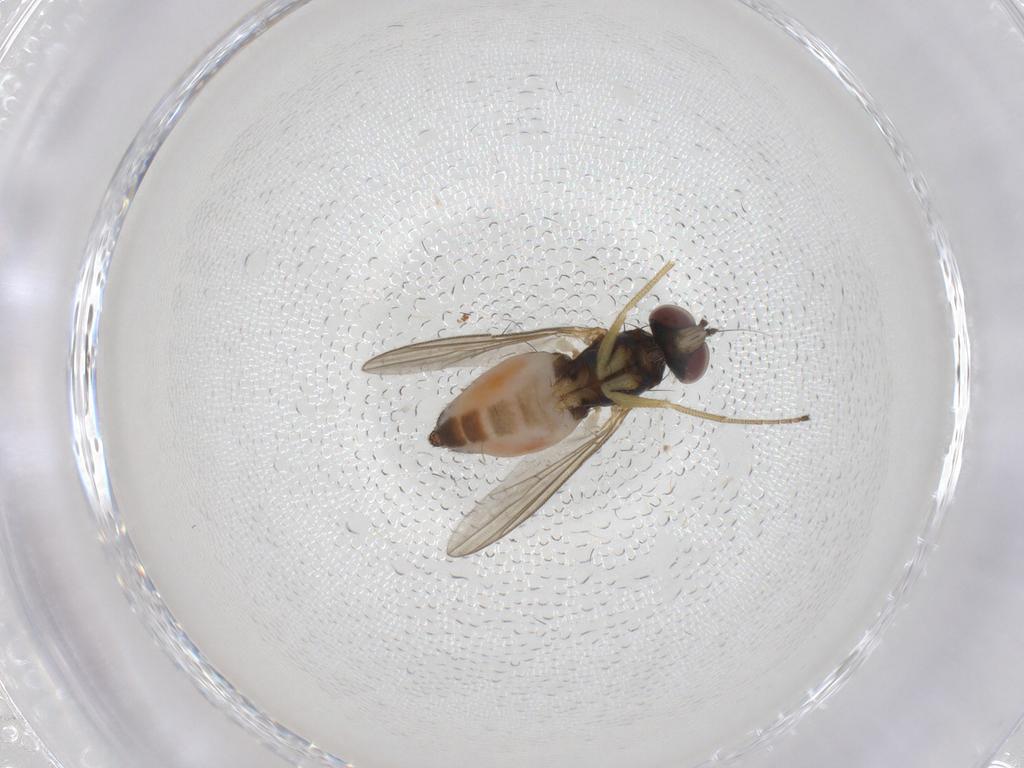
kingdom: Animalia
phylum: Arthropoda
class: Insecta
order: Diptera
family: Dolichopodidae
